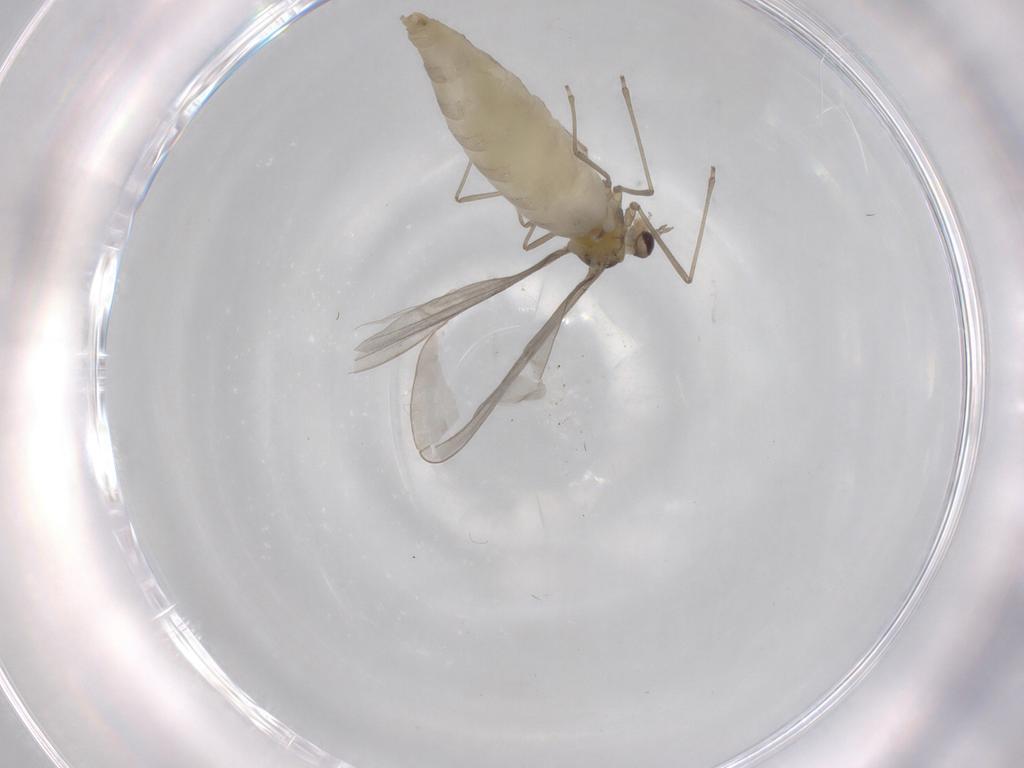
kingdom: Animalia
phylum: Arthropoda
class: Insecta
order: Diptera
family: Cecidomyiidae
